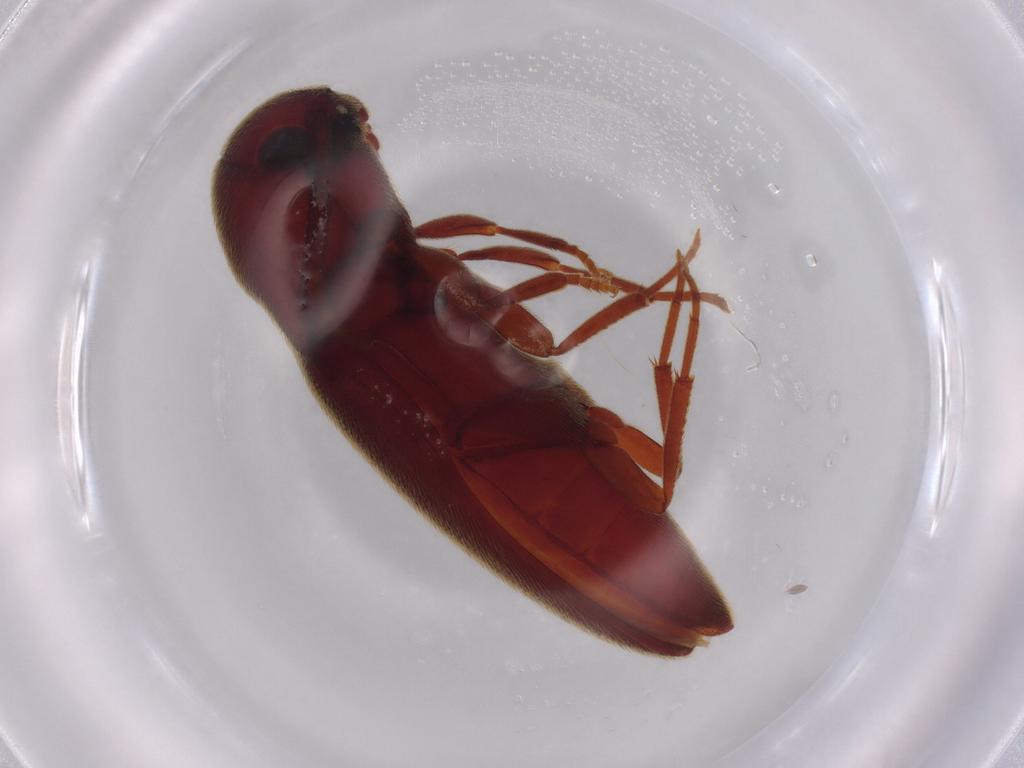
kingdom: Animalia
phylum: Arthropoda
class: Insecta
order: Coleoptera
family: Eucnemidae
